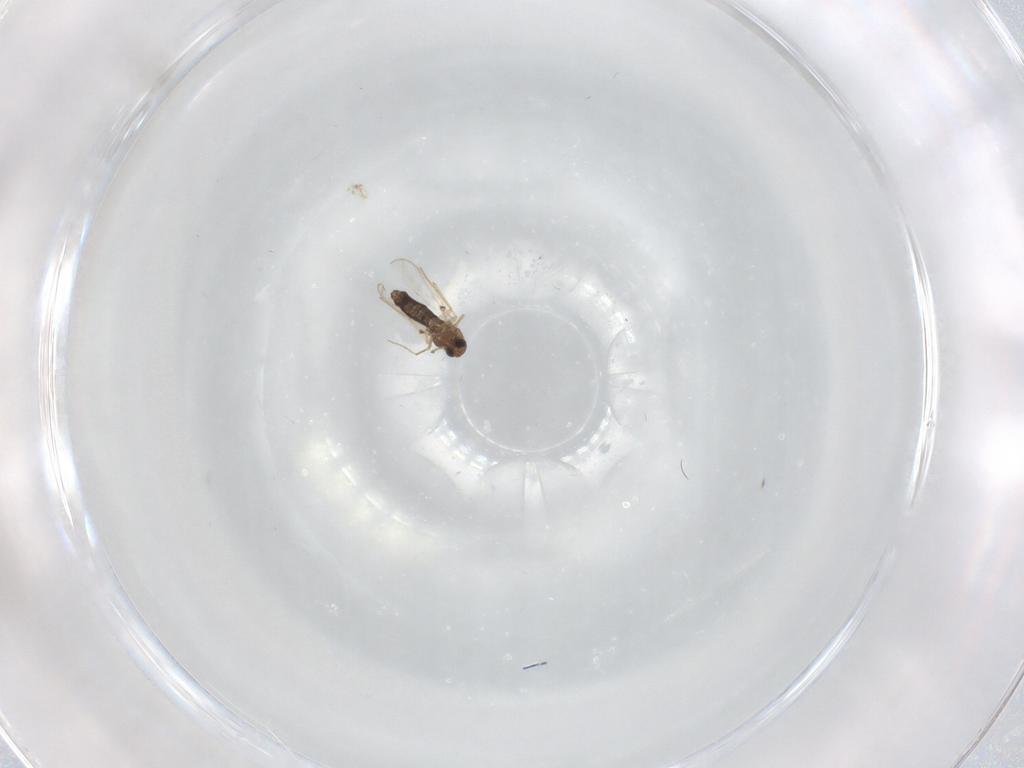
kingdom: Animalia
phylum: Arthropoda
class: Insecta
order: Diptera
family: Chironomidae
